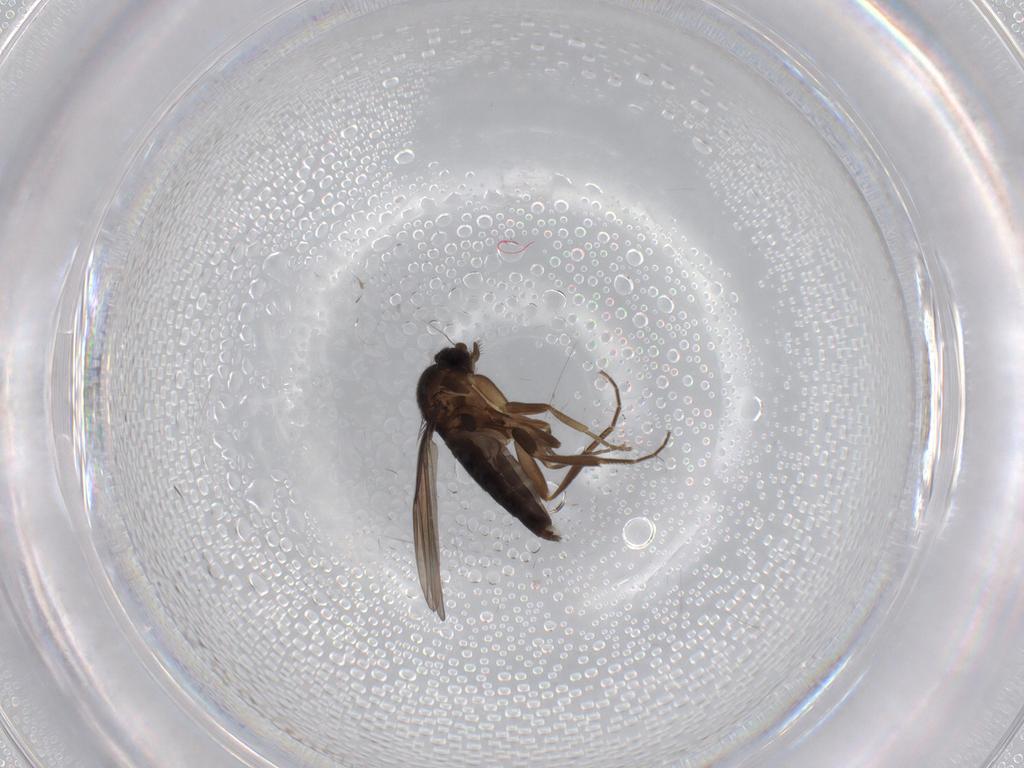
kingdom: Animalia
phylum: Arthropoda
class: Insecta
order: Diptera
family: Phoridae
